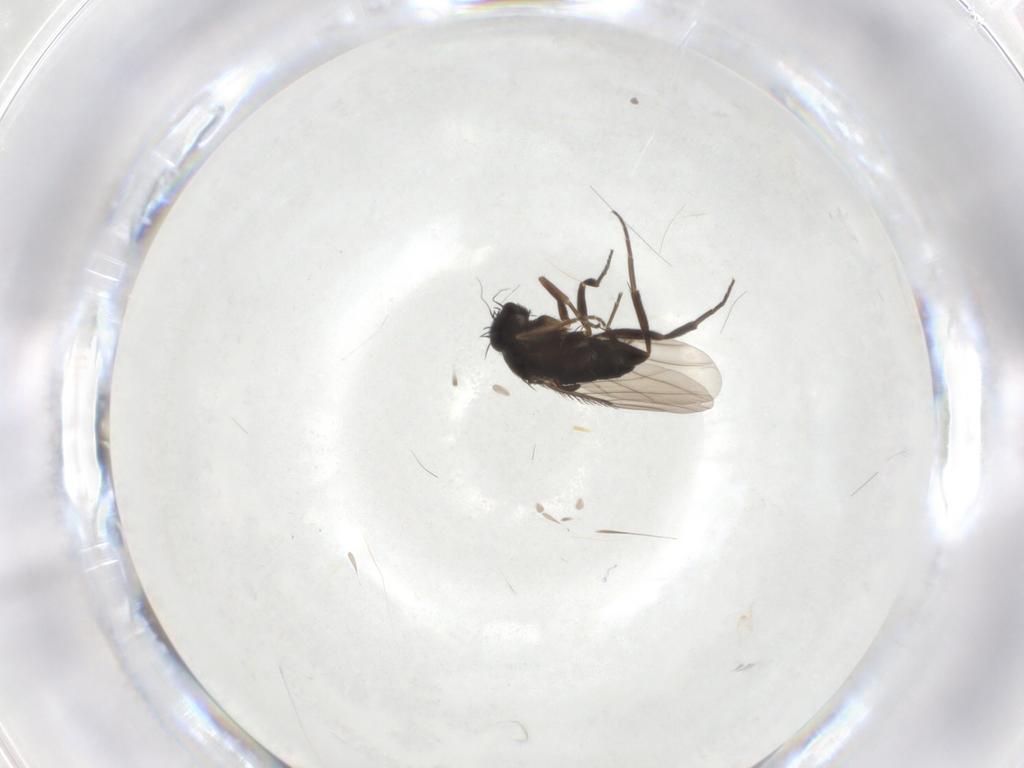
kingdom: Animalia
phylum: Arthropoda
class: Insecta
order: Diptera
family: Phoridae
